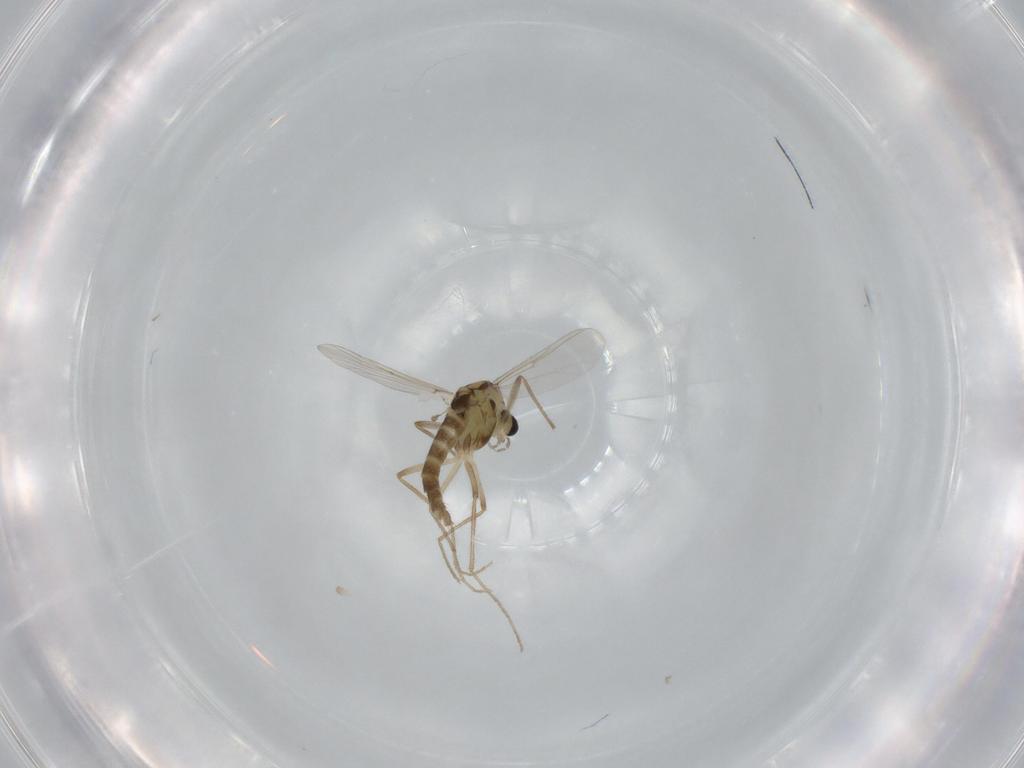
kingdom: Animalia
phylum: Arthropoda
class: Insecta
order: Diptera
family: Chironomidae
